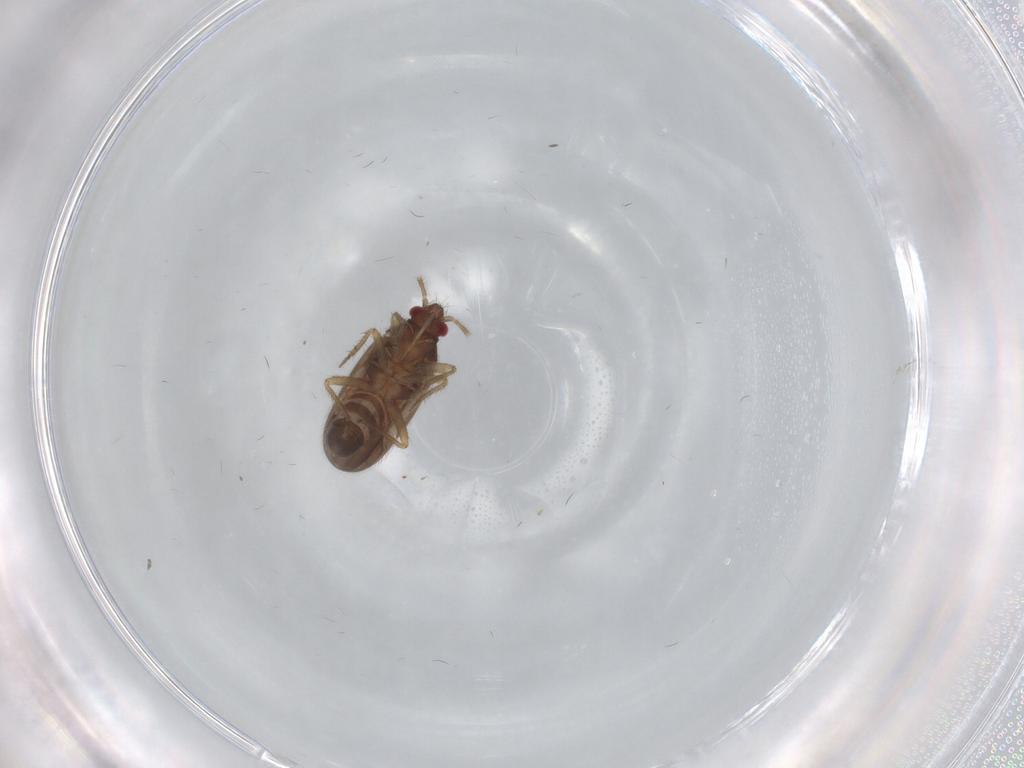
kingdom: Animalia
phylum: Arthropoda
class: Insecta
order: Hemiptera
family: Ceratocombidae
